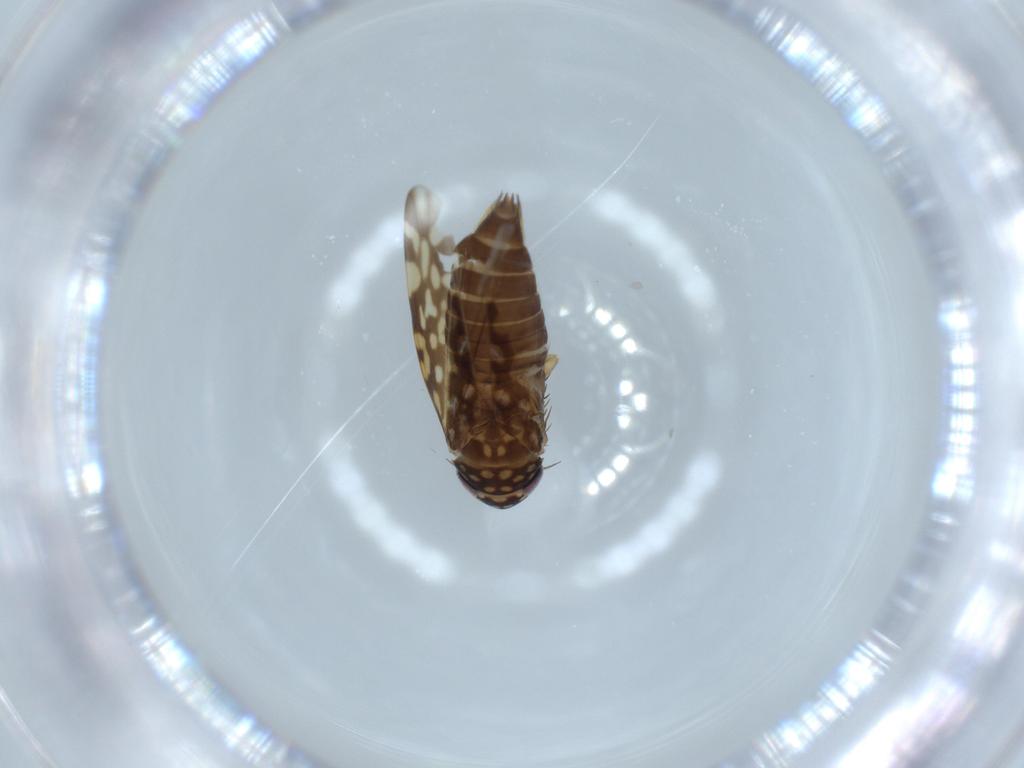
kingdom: Animalia
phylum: Arthropoda
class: Insecta
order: Hemiptera
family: Cicadellidae
